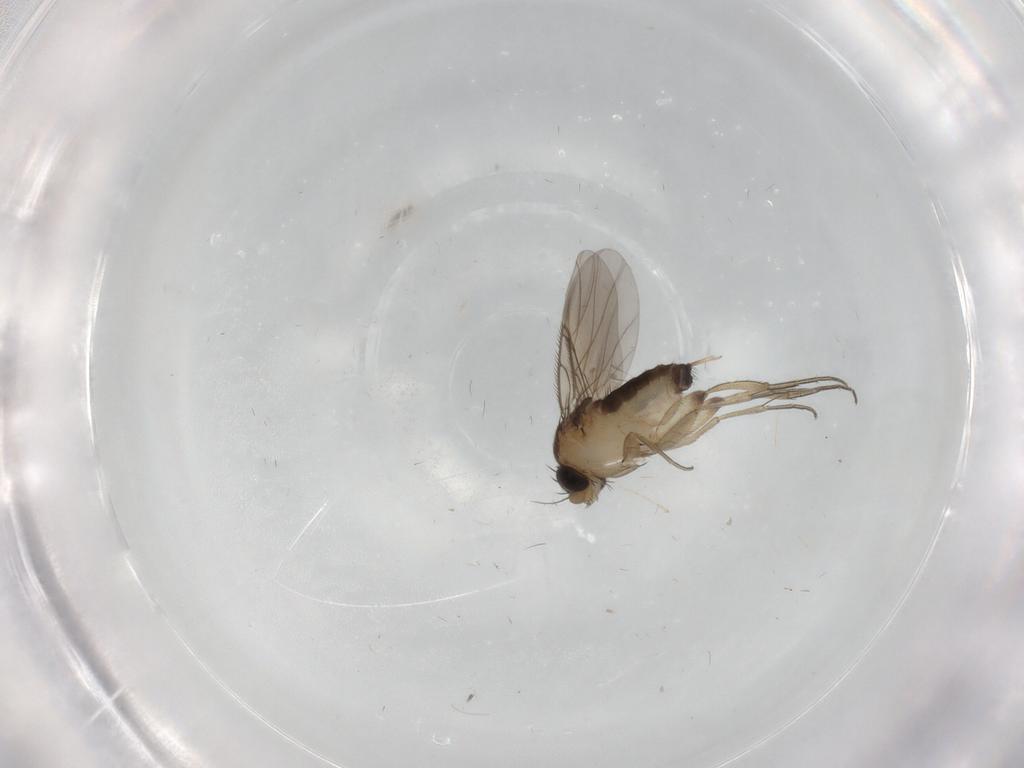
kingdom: Animalia
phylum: Arthropoda
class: Insecta
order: Diptera
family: Phoridae
